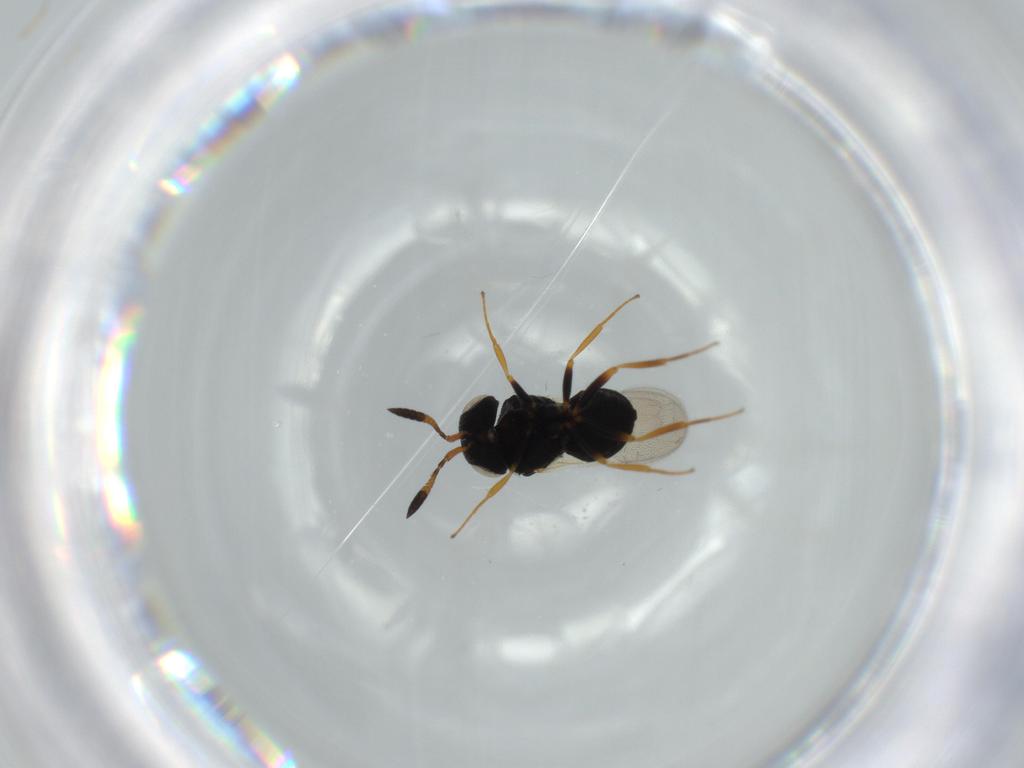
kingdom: Animalia
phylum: Arthropoda
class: Insecta
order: Hymenoptera
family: Scelionidae
